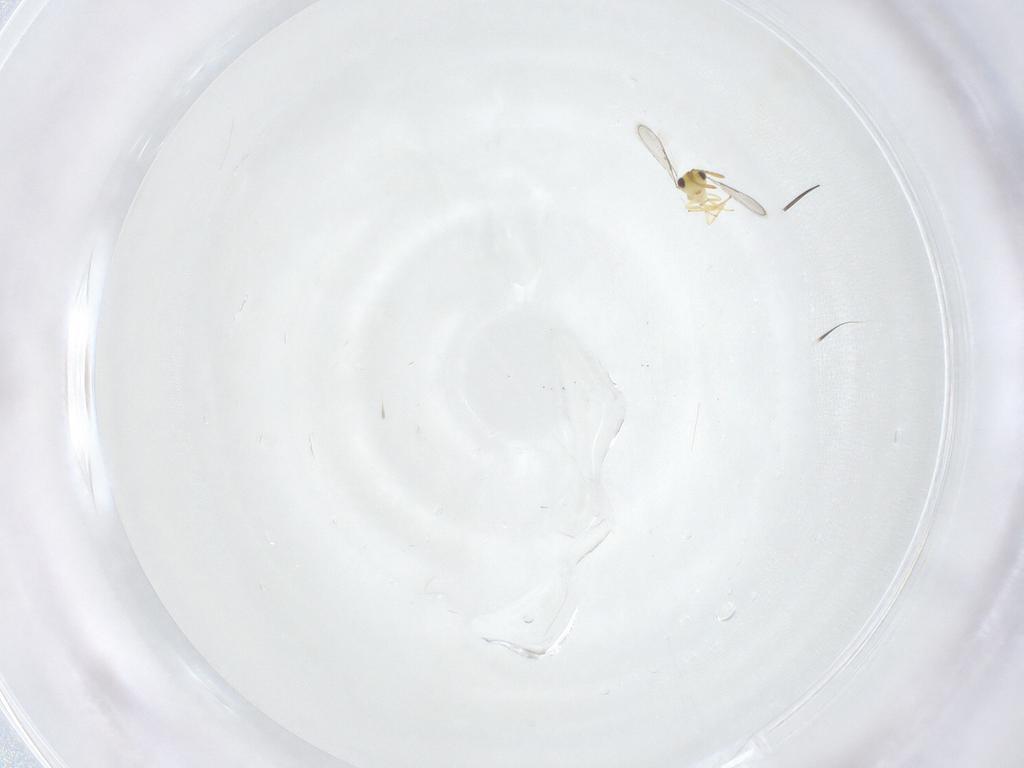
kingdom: Animalia
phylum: Arthropoda
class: Insecta
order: Hymenoptera
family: Aphelinidae
